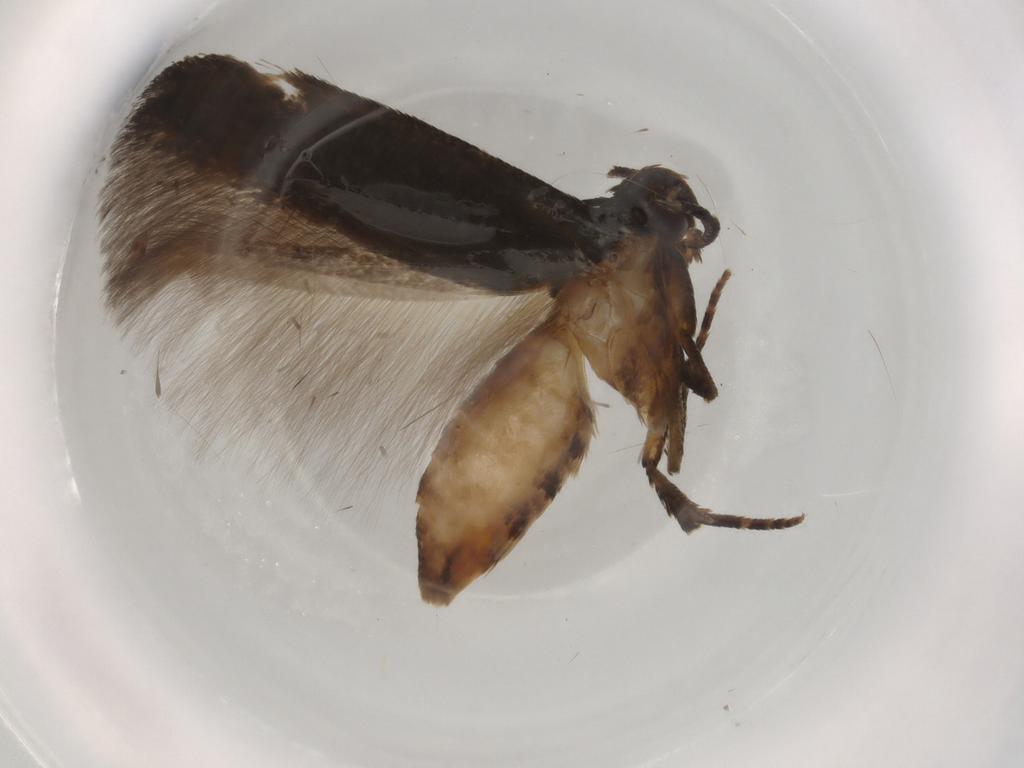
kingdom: Animalia
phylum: Arthropoda
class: Insecta
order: Lepidoptera
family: Cosmopterigidae
